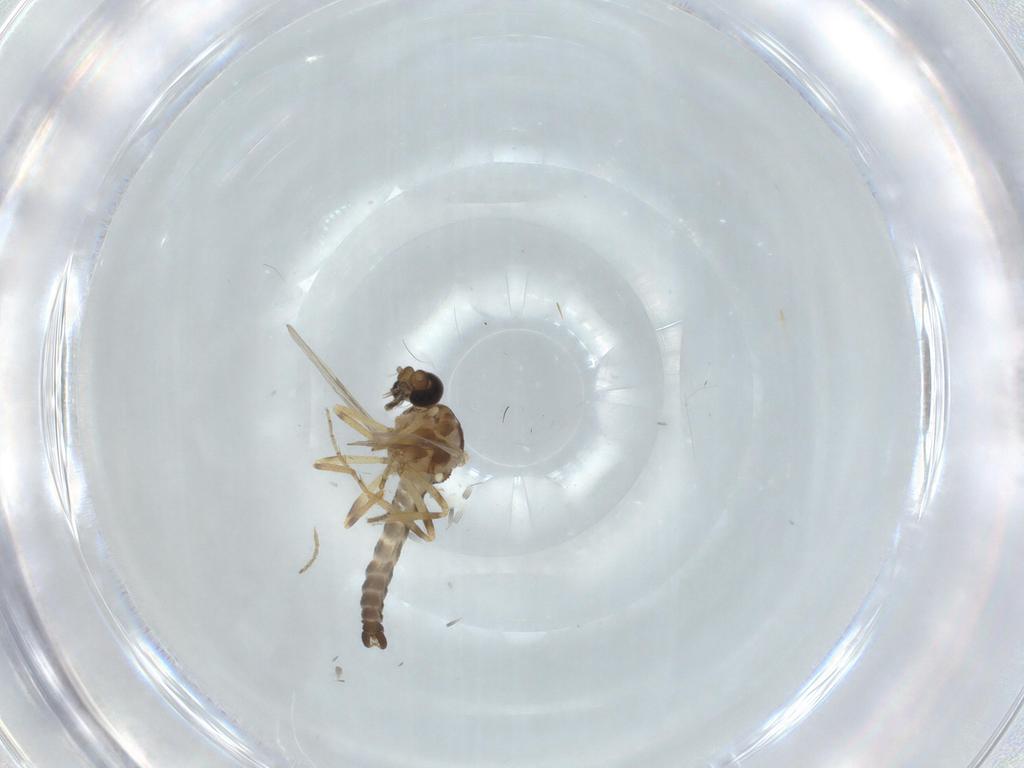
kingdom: Animalia
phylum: Arthropoda
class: Insecta
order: Diptera
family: Ceratopogonidae
